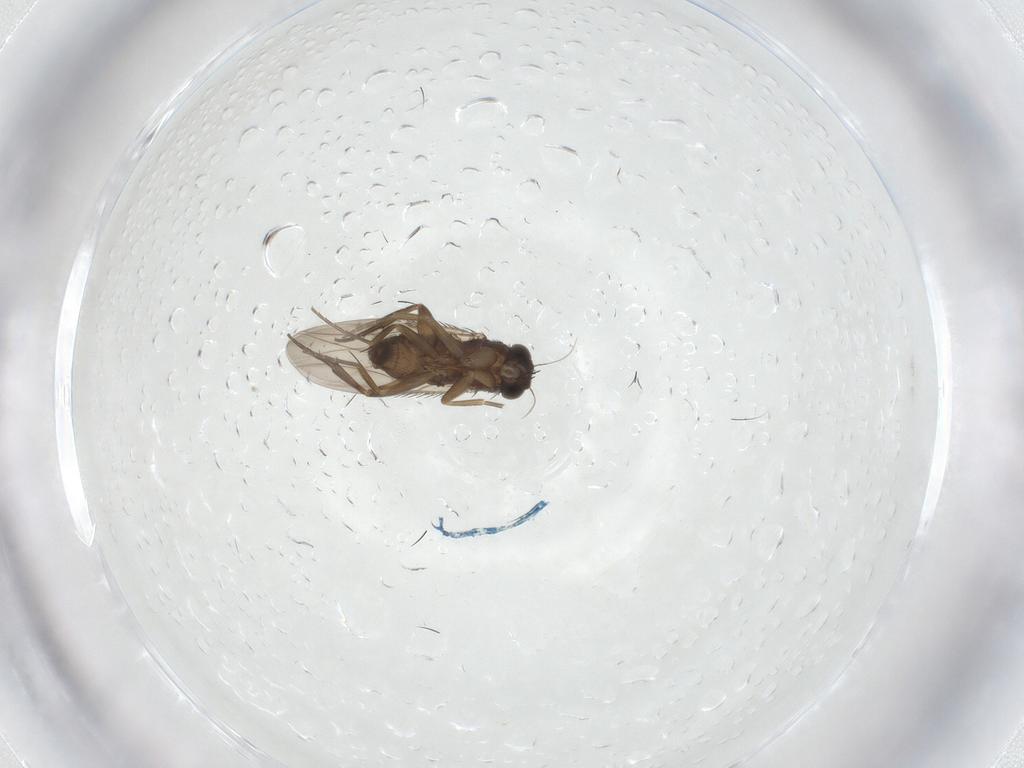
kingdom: Animalia
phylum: Arthropoda
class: Insecta
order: Diptera
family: Phoridae
